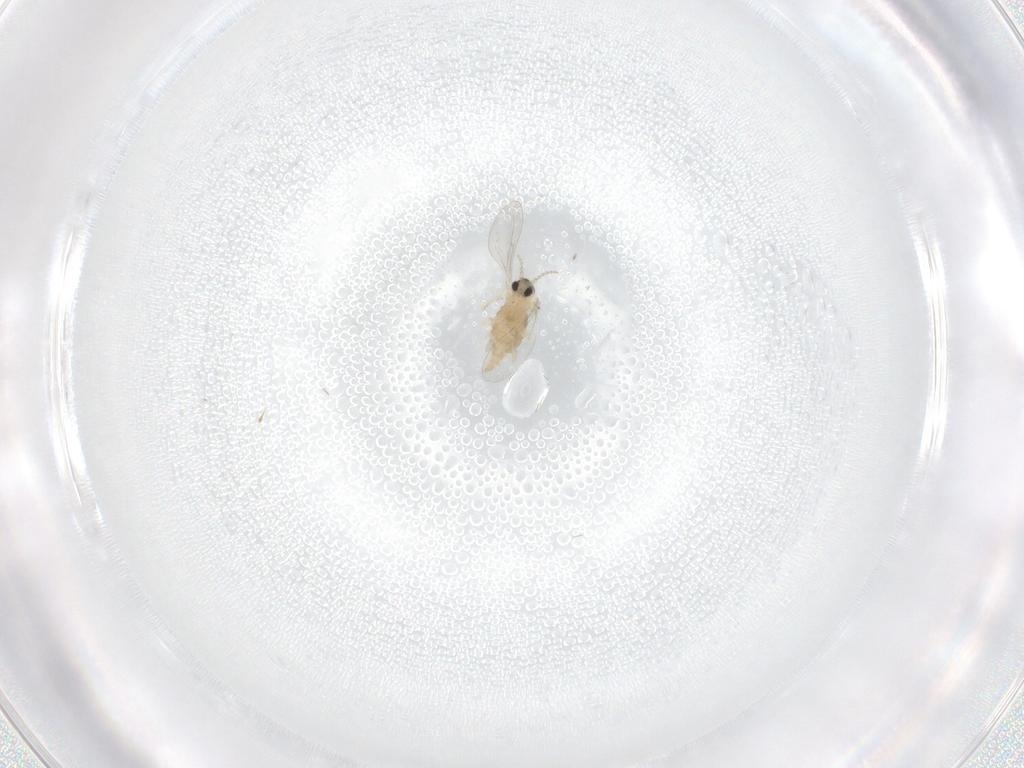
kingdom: Animalia
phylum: Arthropoda
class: Insecta
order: Diptera
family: Cecidomyiidae
